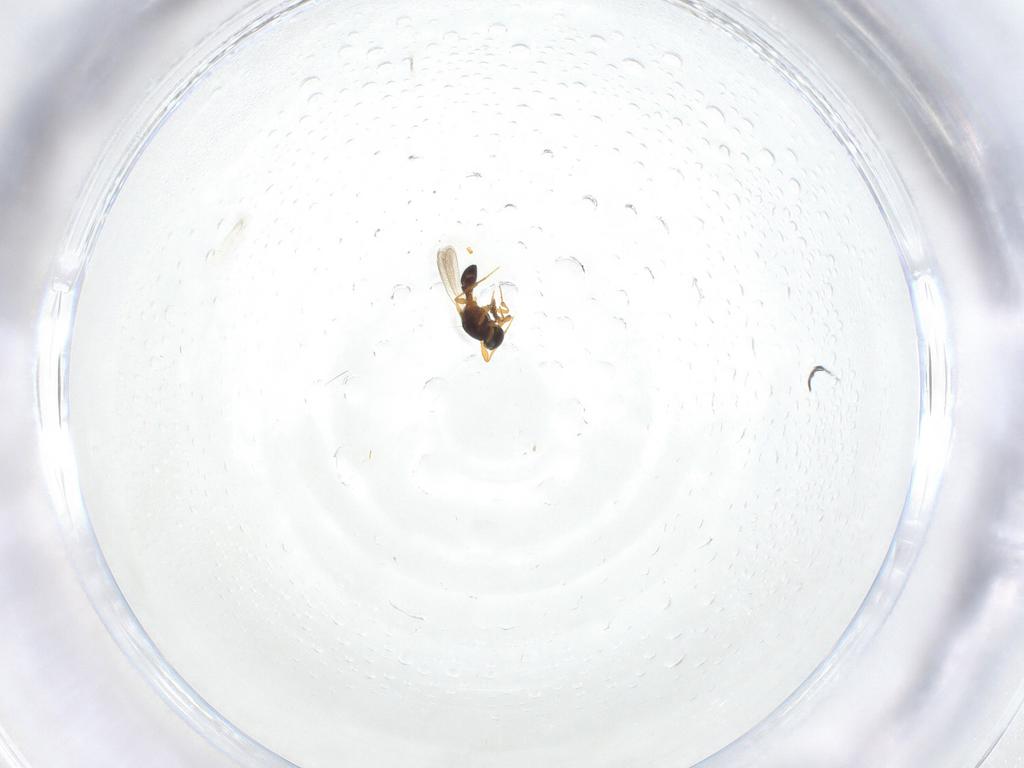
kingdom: Animalia
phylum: Arthropoda
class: Insecta
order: Hymenoptera
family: Platygastridae
